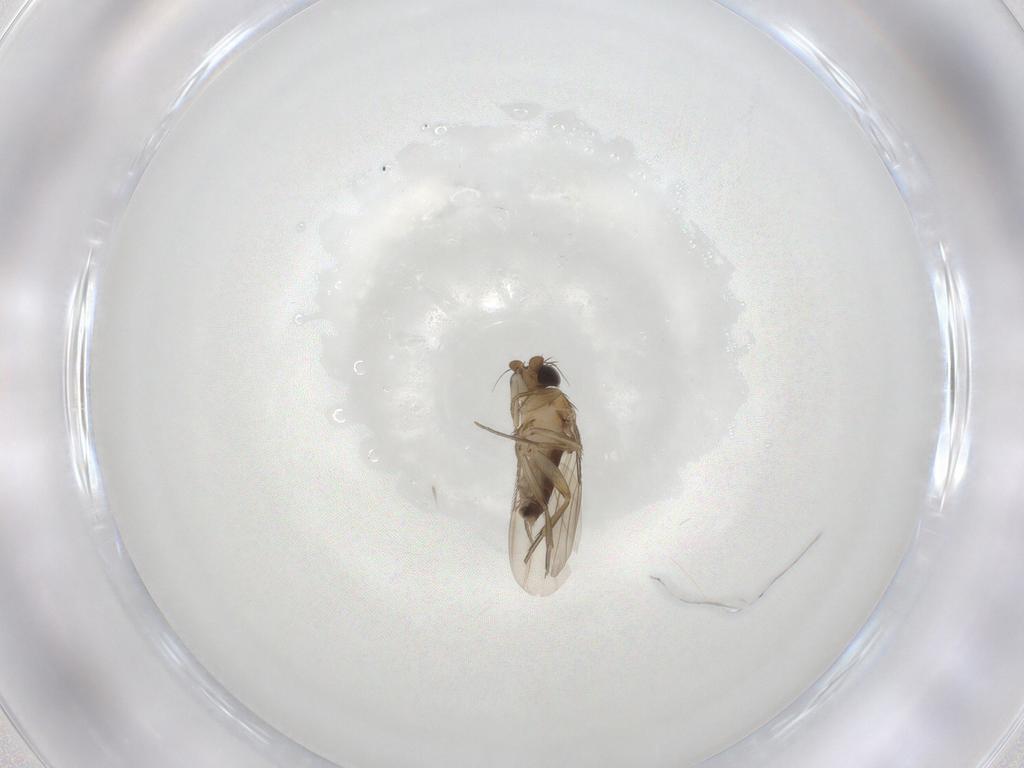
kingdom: Animalia
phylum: Arthropoda
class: Insecta
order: Diptera
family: Phoridae
